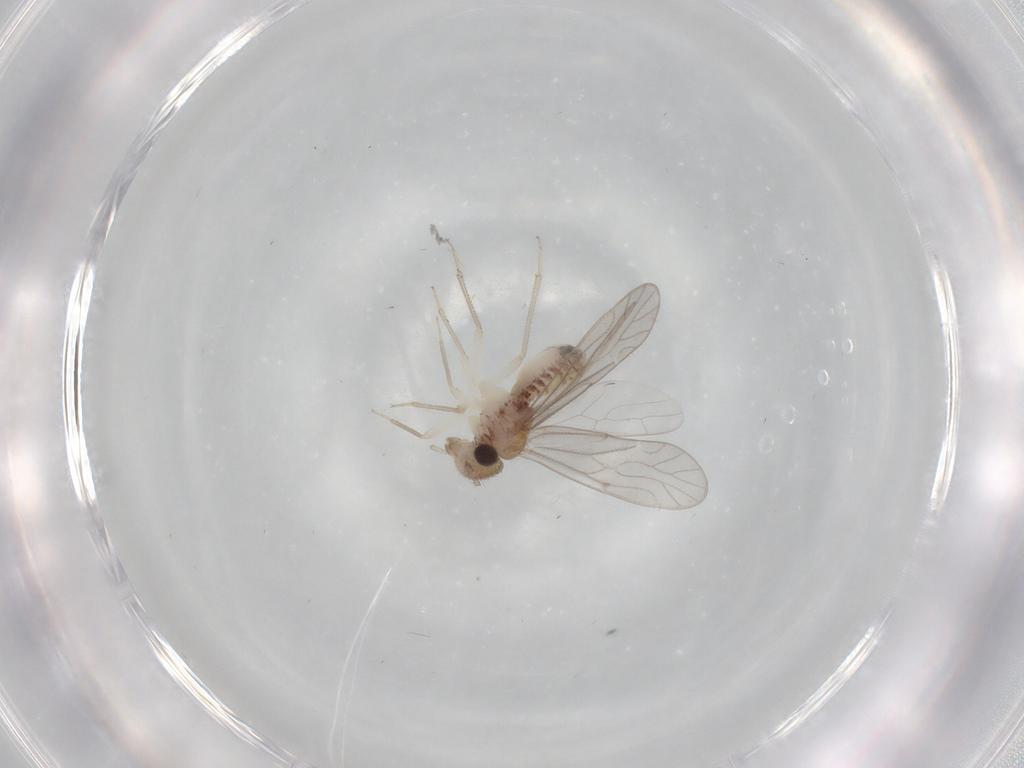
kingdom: Animalia
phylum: Arthropoda
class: Insecta
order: Psocodea
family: Caeciliusidae
